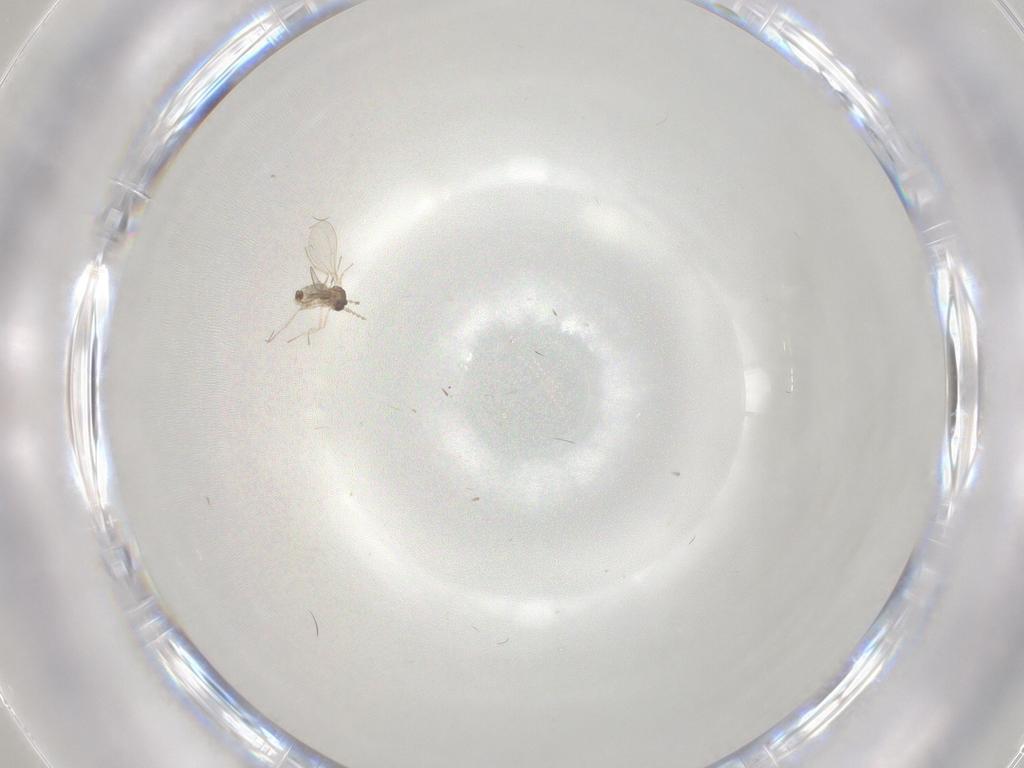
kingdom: Animalia
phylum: Arthropoda
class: Insecta
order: Diptera
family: Cecidomyiidae
